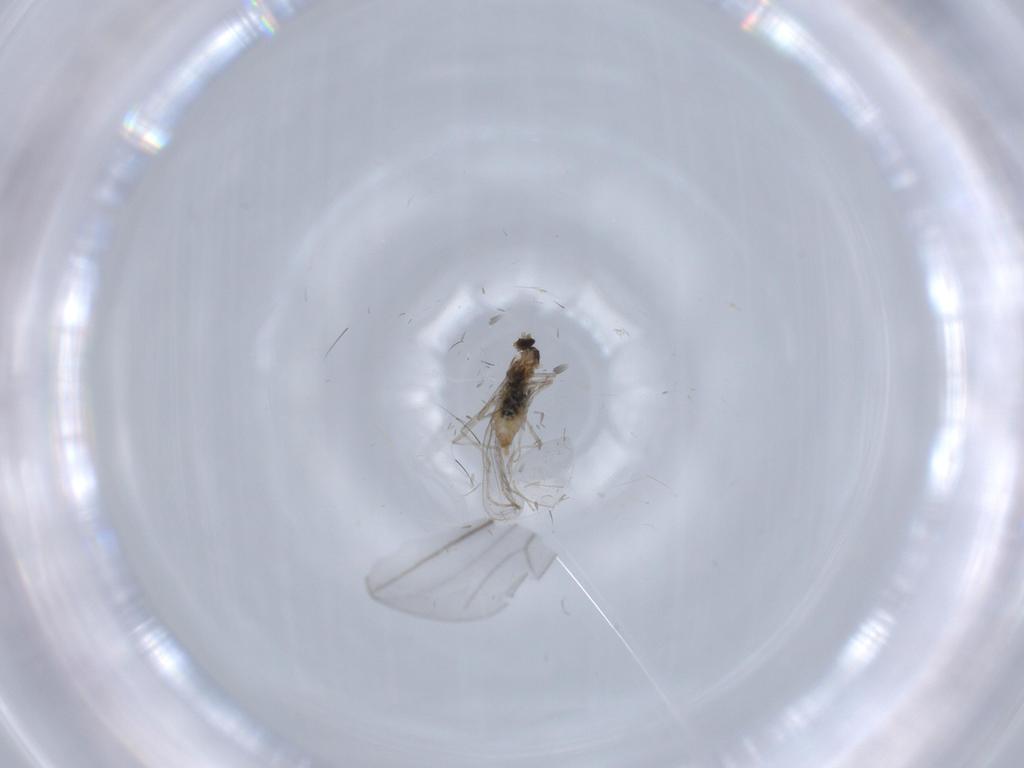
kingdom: Animalia
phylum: Arthropoda
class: Insecta
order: Diptera
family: Cecidomyiidae
